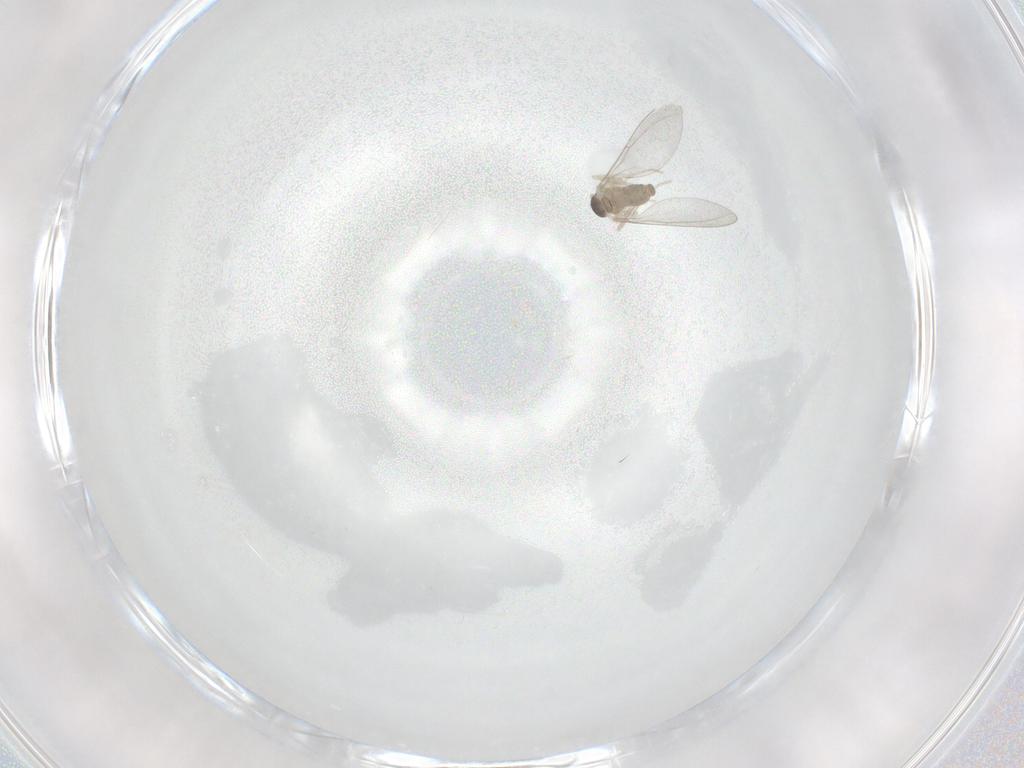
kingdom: Animalia
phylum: Arthropoda
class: Insecta
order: Diptera
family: Cecidomyiidae
